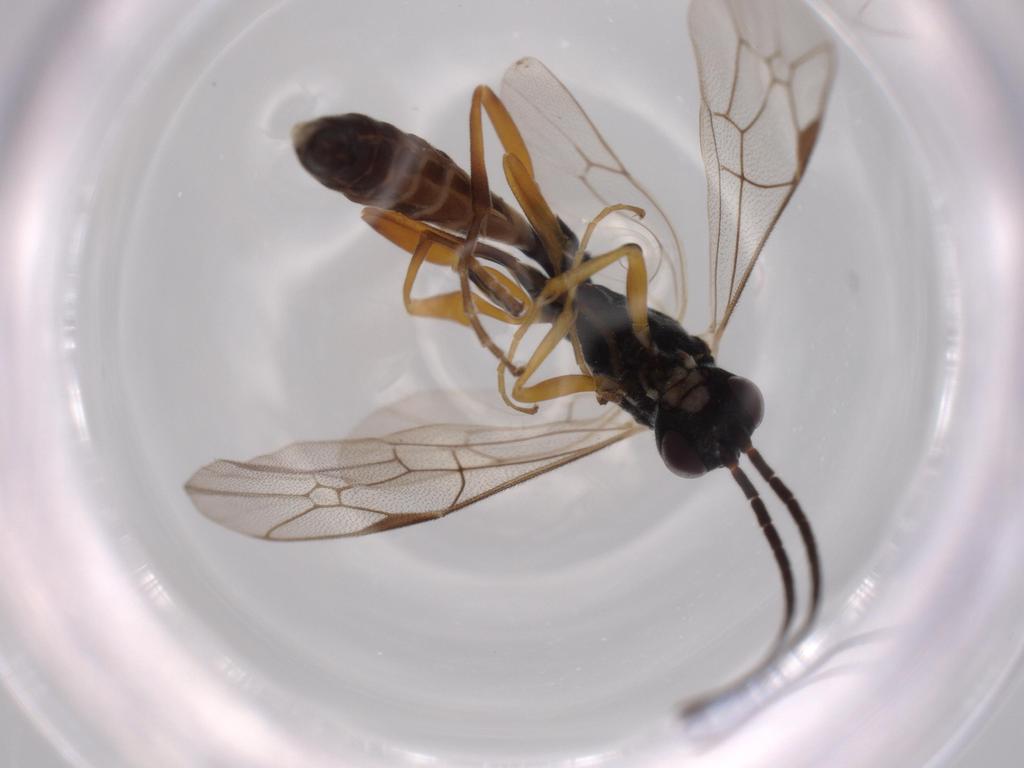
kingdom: Animalia
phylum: Arthropoda
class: Insecta
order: Hymenoptera
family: Ichneumonidae
